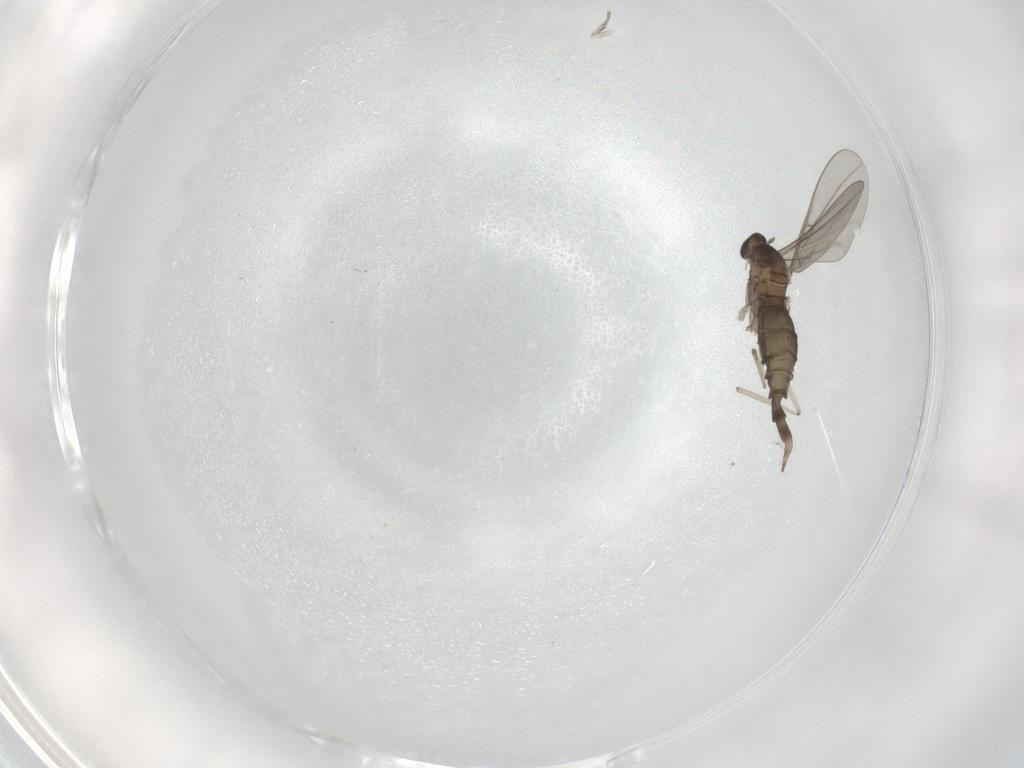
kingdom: Animalia
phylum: Arthropoda
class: Insecta
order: Diptera
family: Cecidomyiidae
